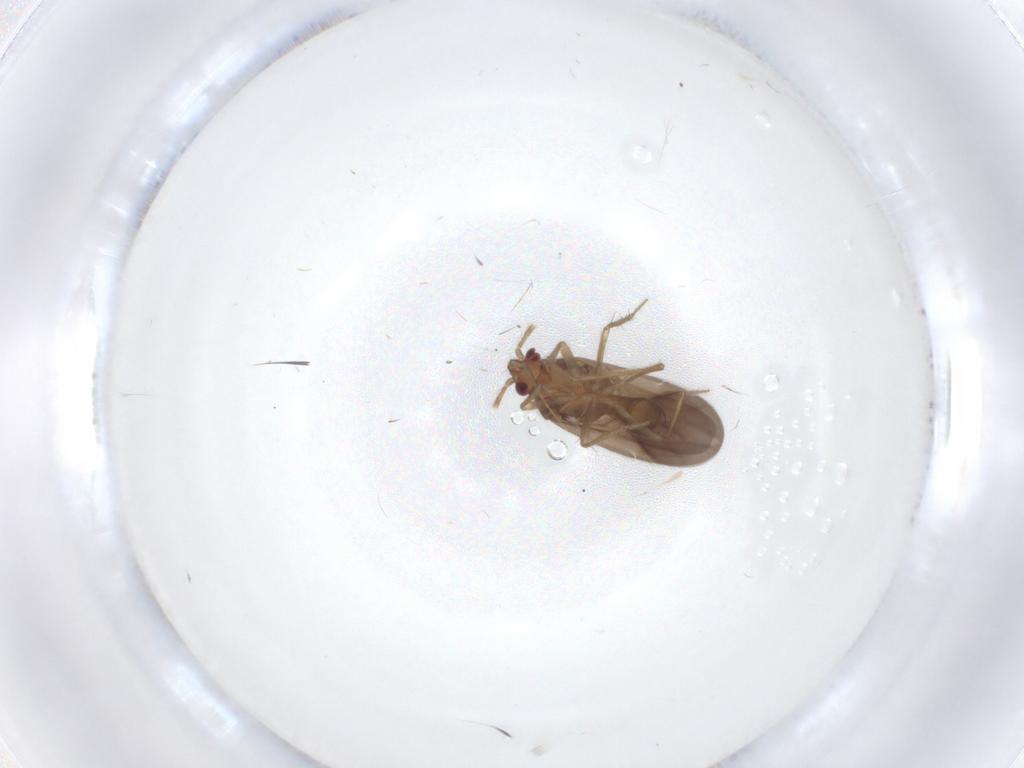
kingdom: Animalia
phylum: Arthropoda
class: Insecta
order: Hemiptera
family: Ceratocombidae
